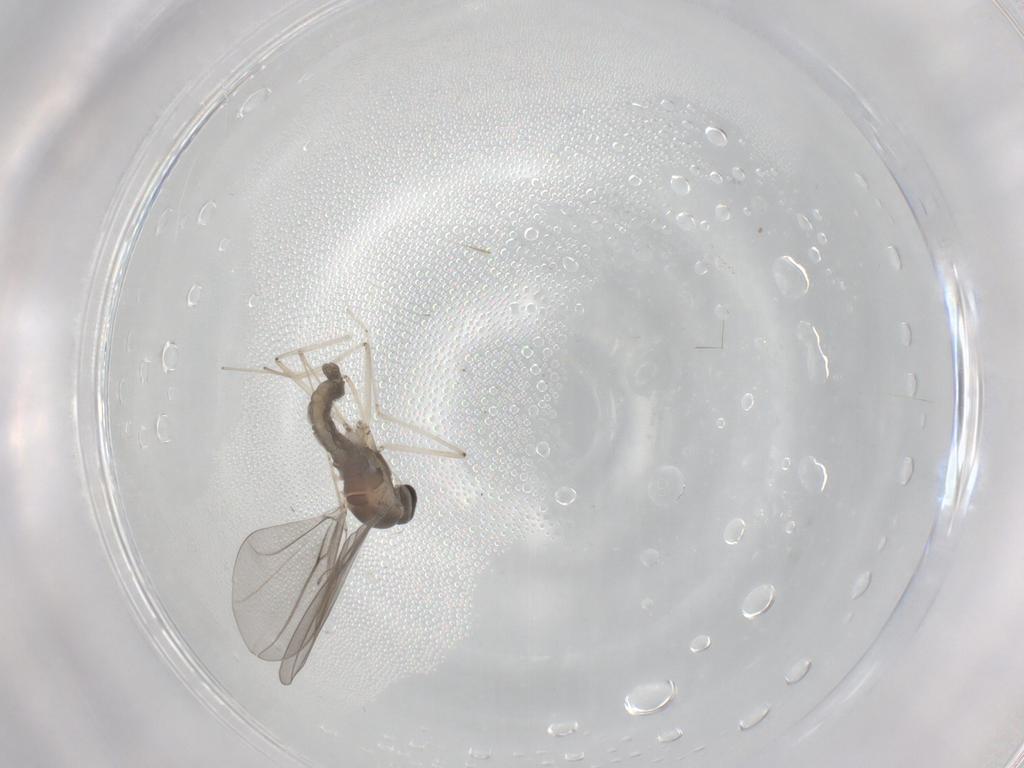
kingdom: Animalia
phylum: Arthropoda
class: Insecta
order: Diptera
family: Cecidomyiidae
